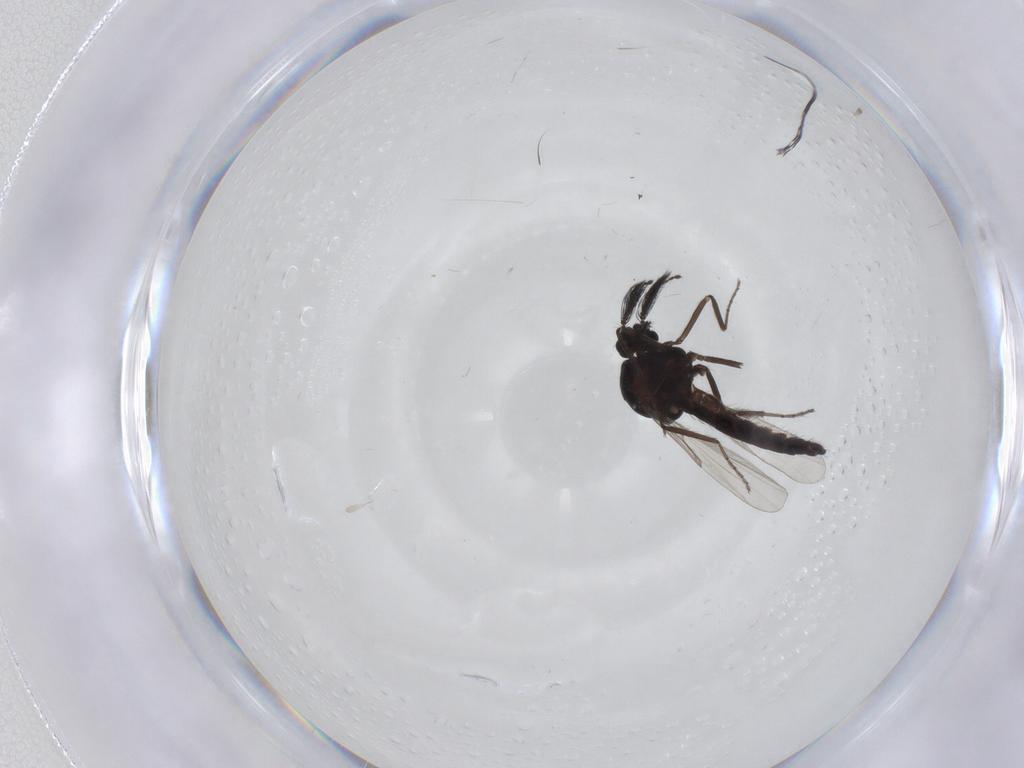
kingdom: Animalia
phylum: Arthropoda
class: Insecta
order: Diptera
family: Ceratopogonidae
